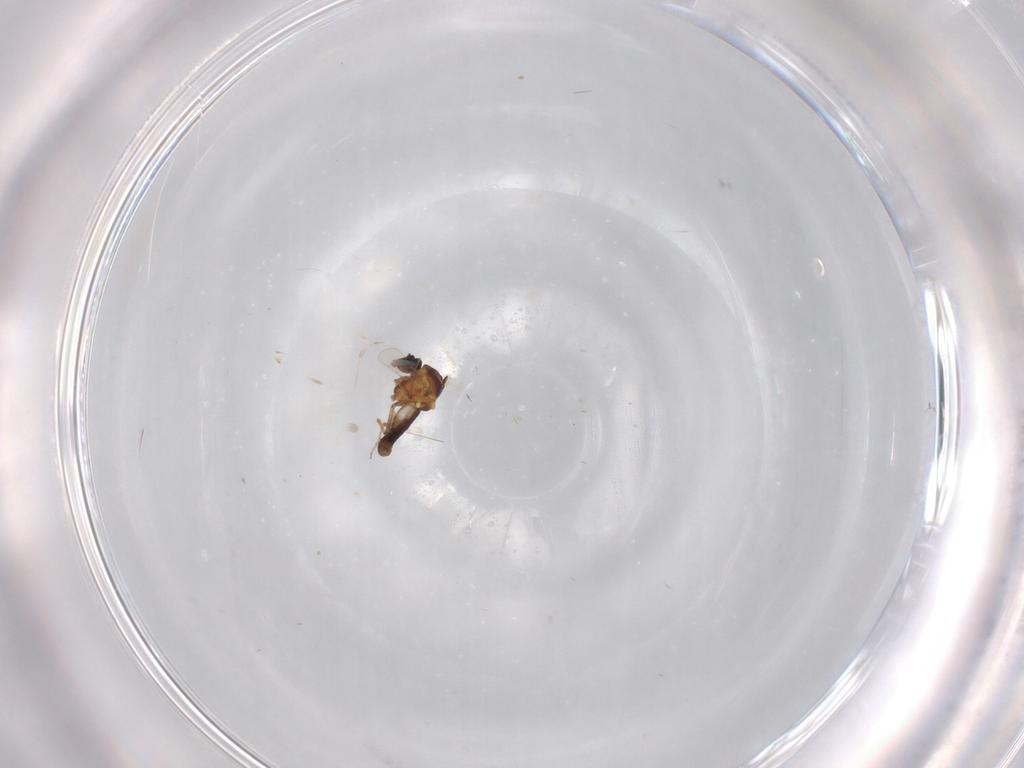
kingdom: Animalia
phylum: Arthropoda
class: Insecta
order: Diptera
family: Ceratopogonidae
